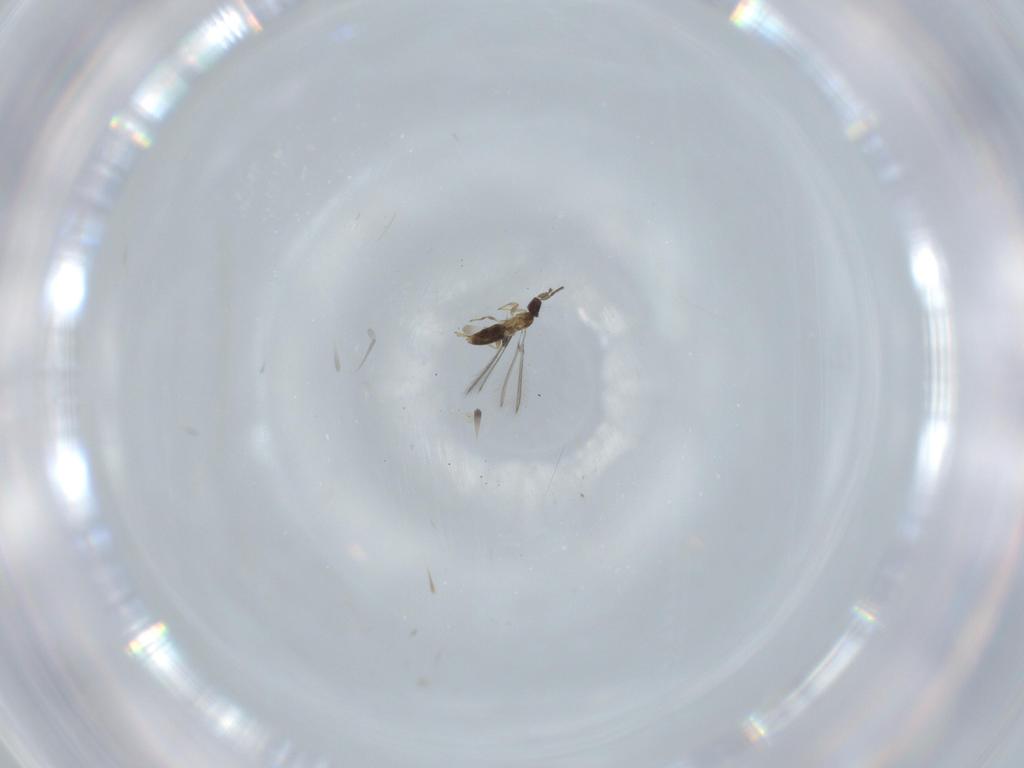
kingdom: Animalia
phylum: Arthropoda
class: Insecta
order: Hymenoptera
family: Mymaridae
